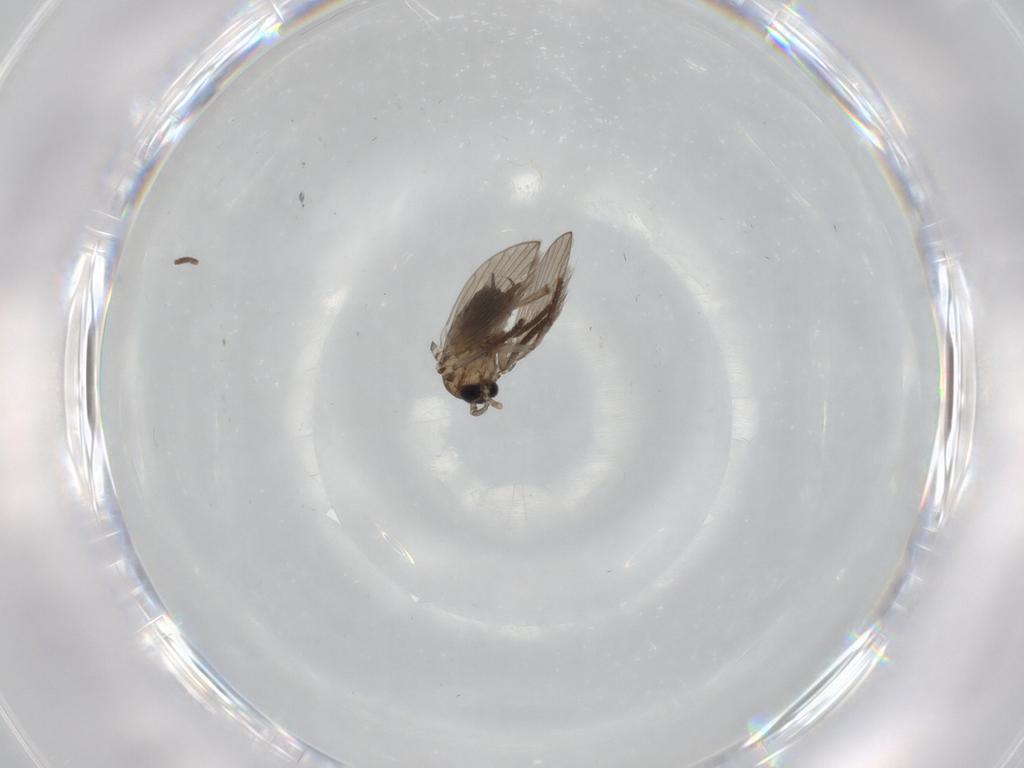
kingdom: Animalia
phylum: Arthropoda
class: Insecta
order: Diptera
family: Psychodidae
